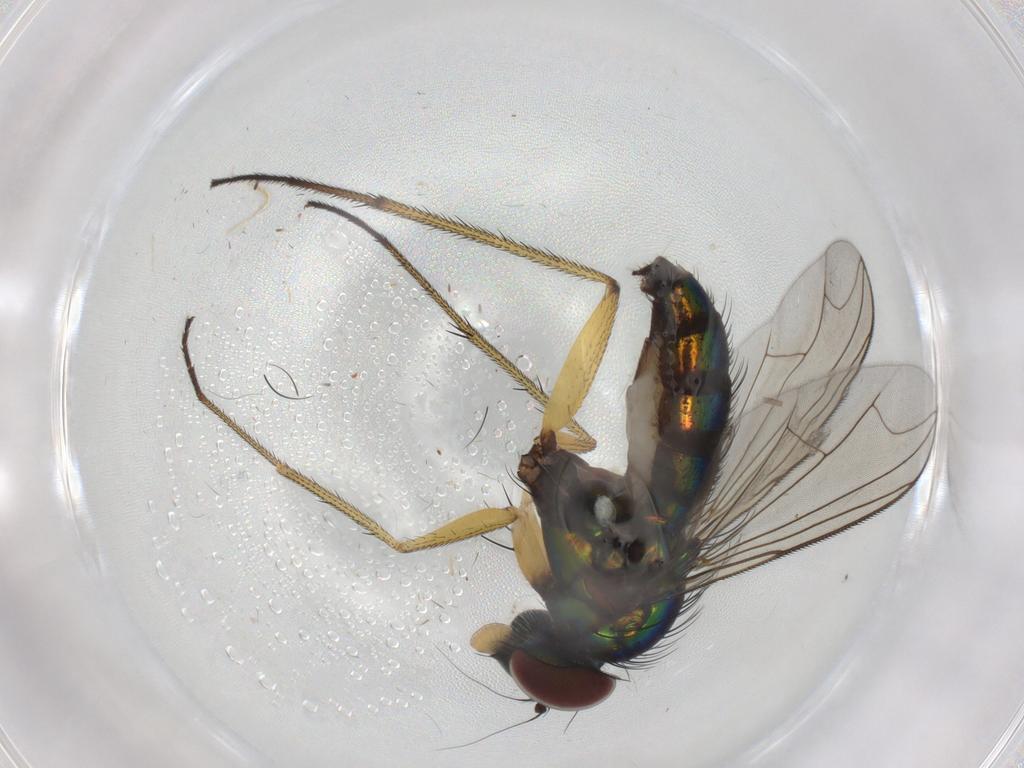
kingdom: Animalia
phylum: Arthropoda
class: Insecta
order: Diptera
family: Dolichopodidae
